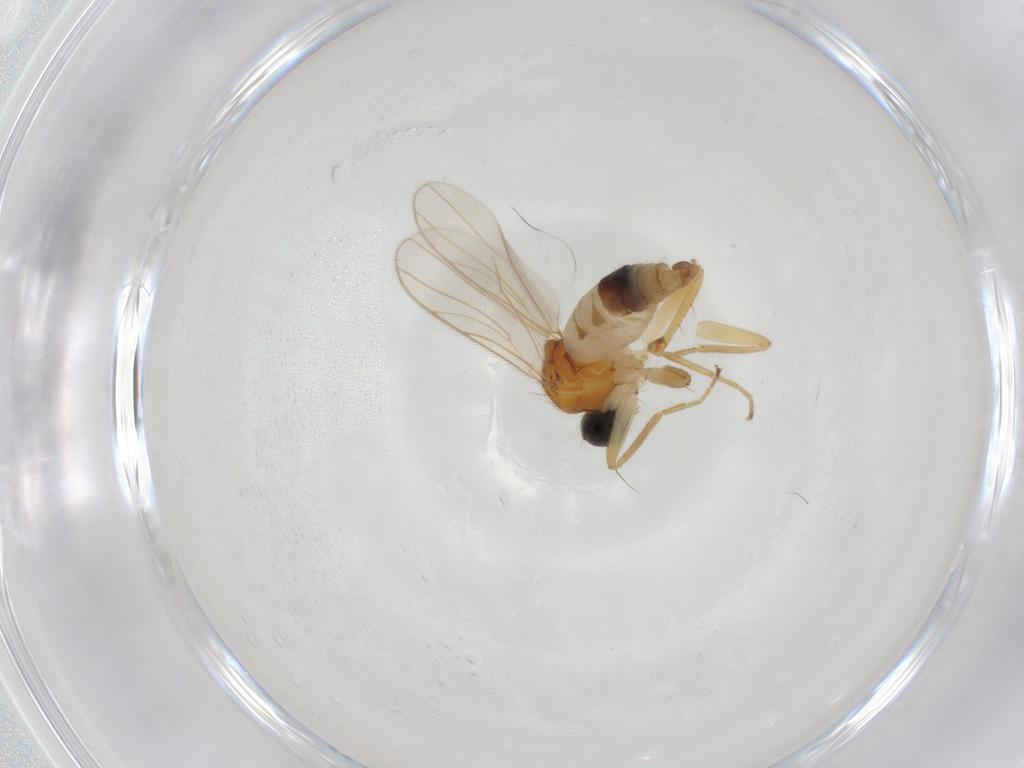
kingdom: Animalia
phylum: Arthropoda
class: Insecta
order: Diptera
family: Hybotidae
